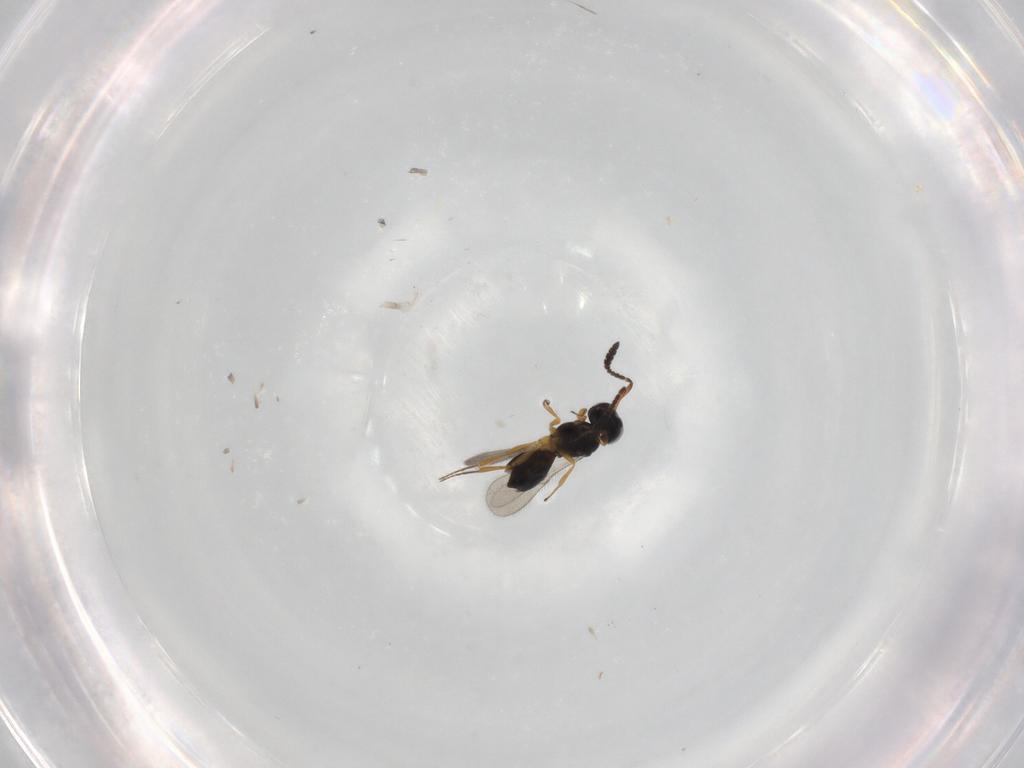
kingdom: Animalia
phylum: Arthropoda
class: Insecta
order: Hymenoptera
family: Scelionidae
